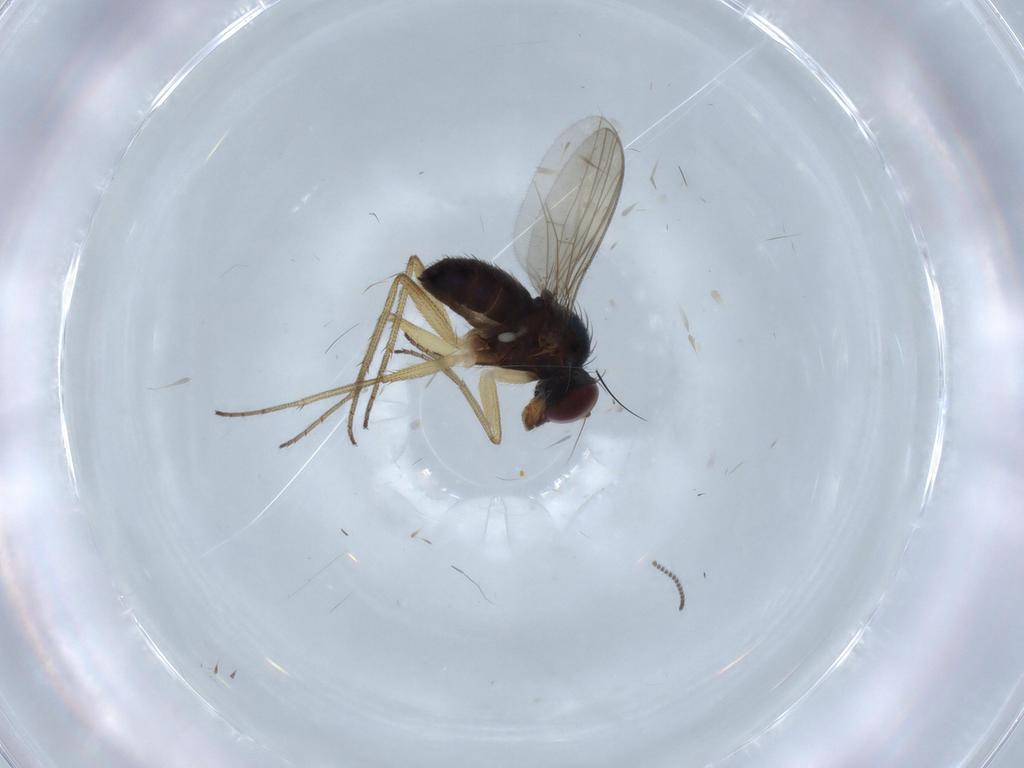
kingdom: Animalia
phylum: Arthropoda
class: Insecta
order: Diptera
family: Dolichopodidae
